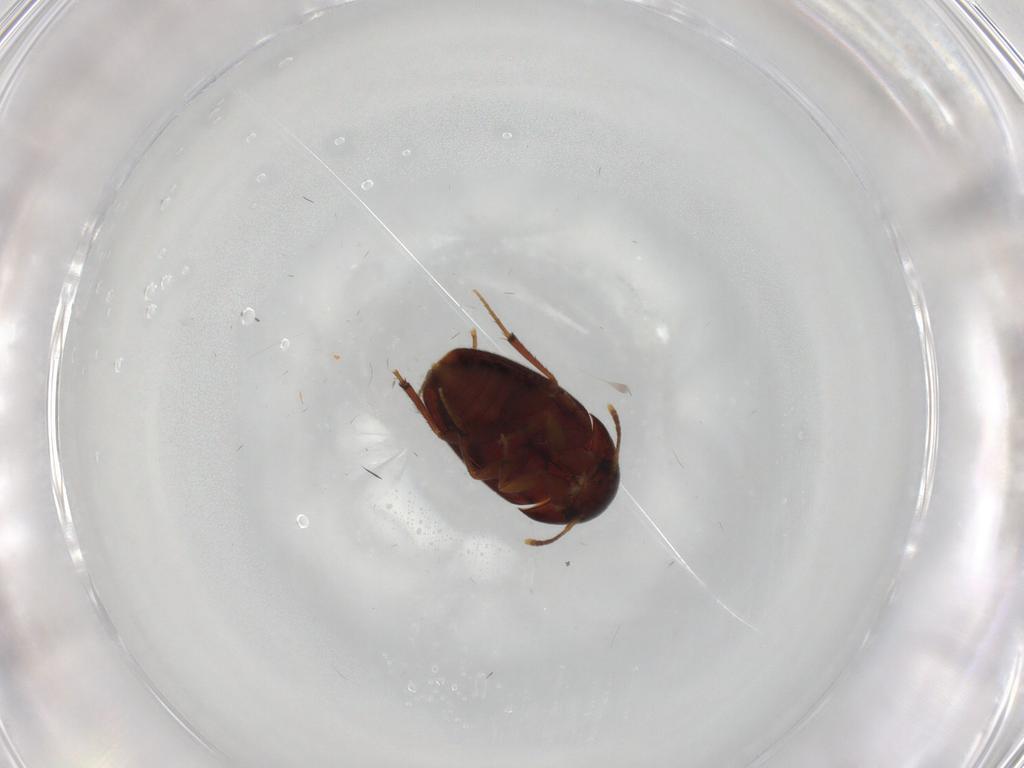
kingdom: Animalia
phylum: Arthropoda
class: Insecta
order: Coleoptera
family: Leiodidae
